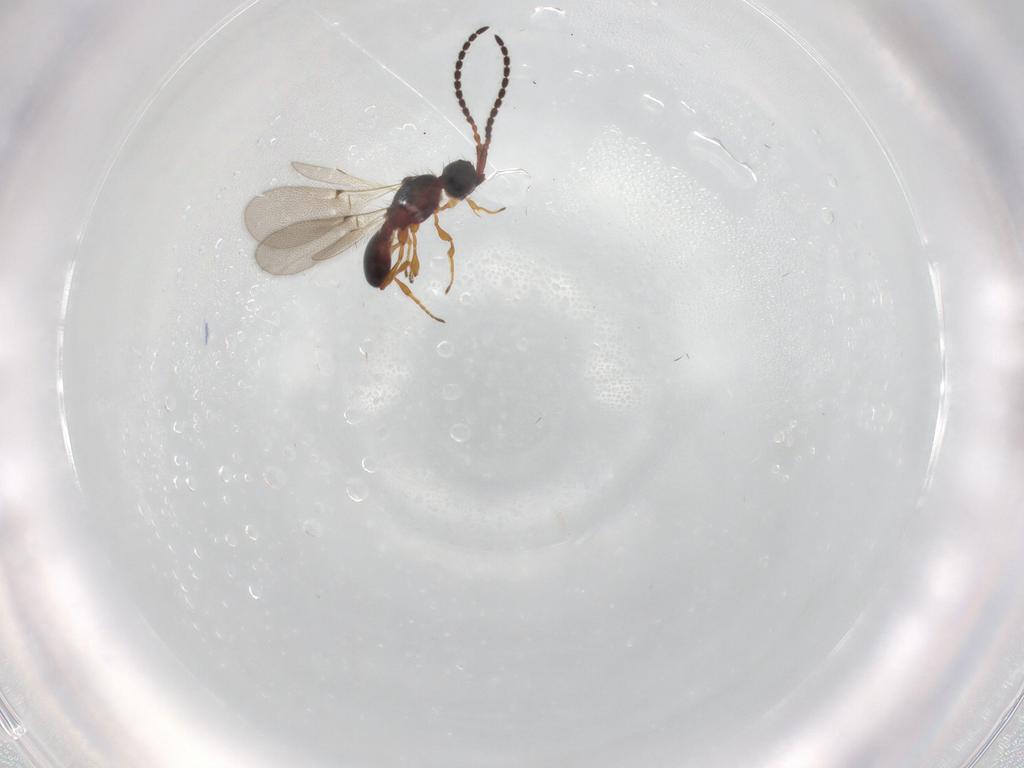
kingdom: Animalia
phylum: Arthropoda
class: Insecta
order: Hymenoptera
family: Diapriidae
